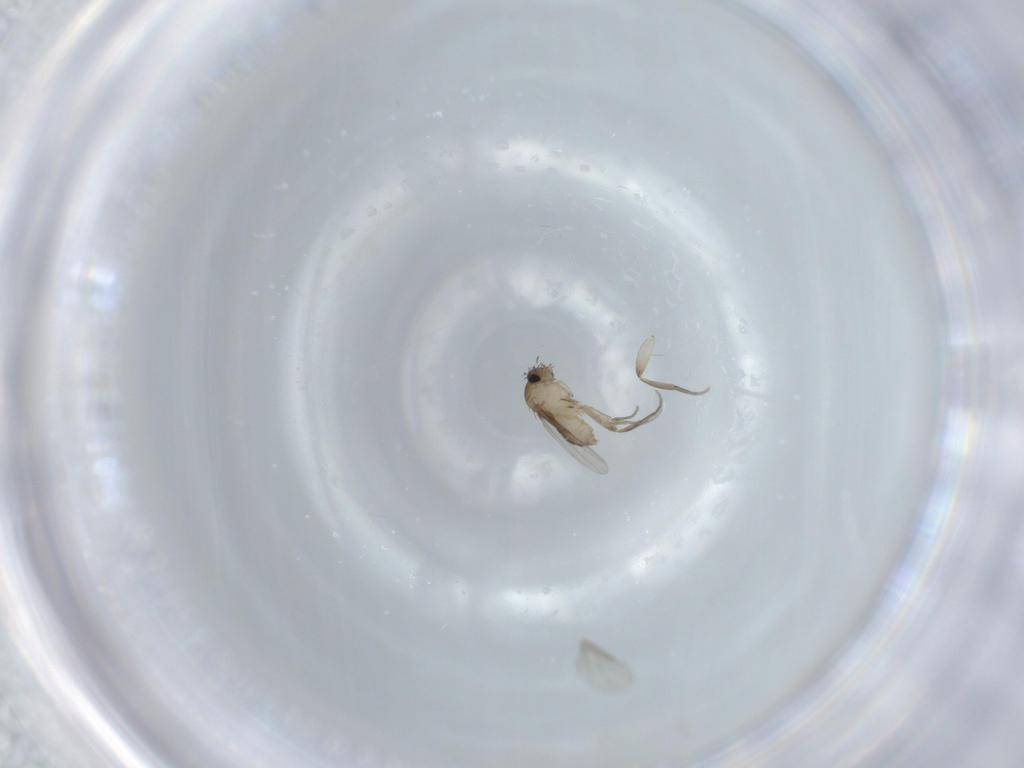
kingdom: Animalia
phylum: Arthropoda
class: Insecta
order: Diptera
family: Phoridae
